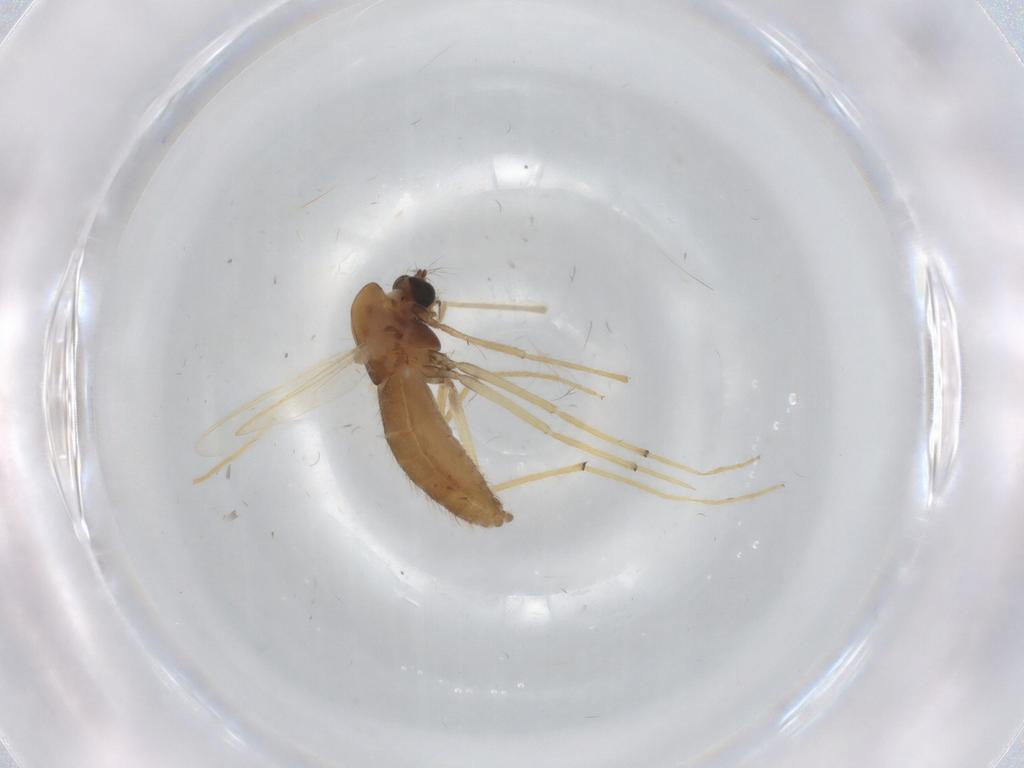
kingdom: Animalia
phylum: Arthropoda
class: Insecta
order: Diptera
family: Chironomidae
